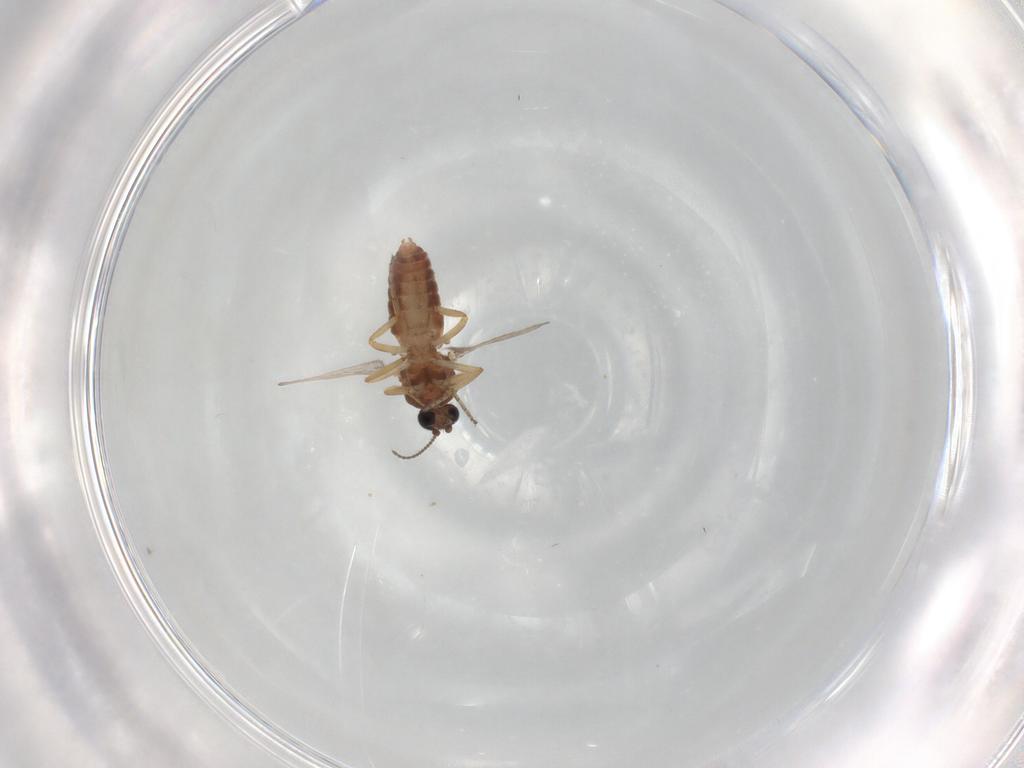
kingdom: Animalia
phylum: Arthropoda
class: Insecta
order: Diptera
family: Ceratopogonidae
